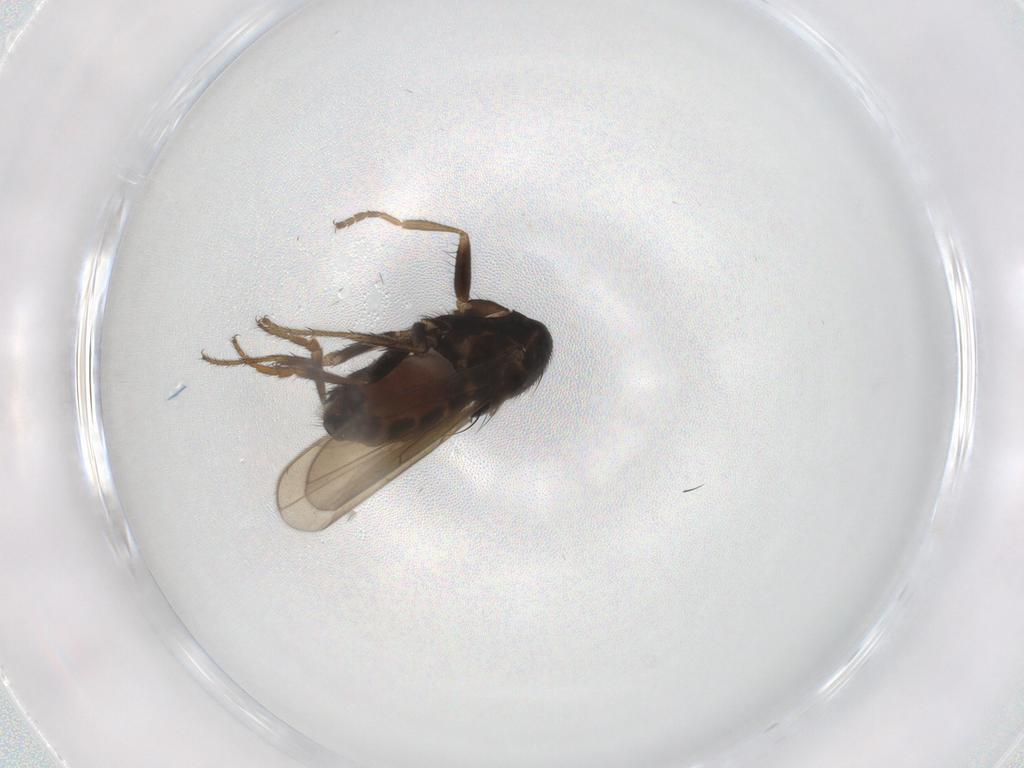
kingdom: Animalia
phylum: Arthropoda
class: Insecta
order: Diptera
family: Sphaeroceridae
